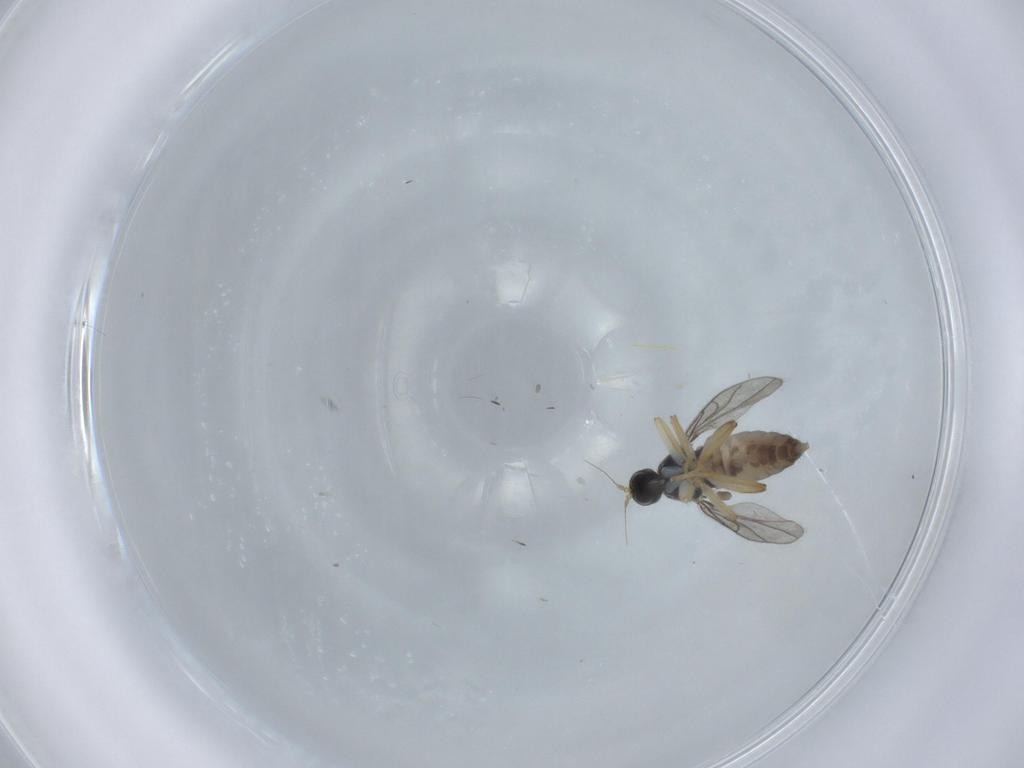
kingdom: Animalia
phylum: Arthropoda
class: Insecta
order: Diptera
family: Hybotidae
